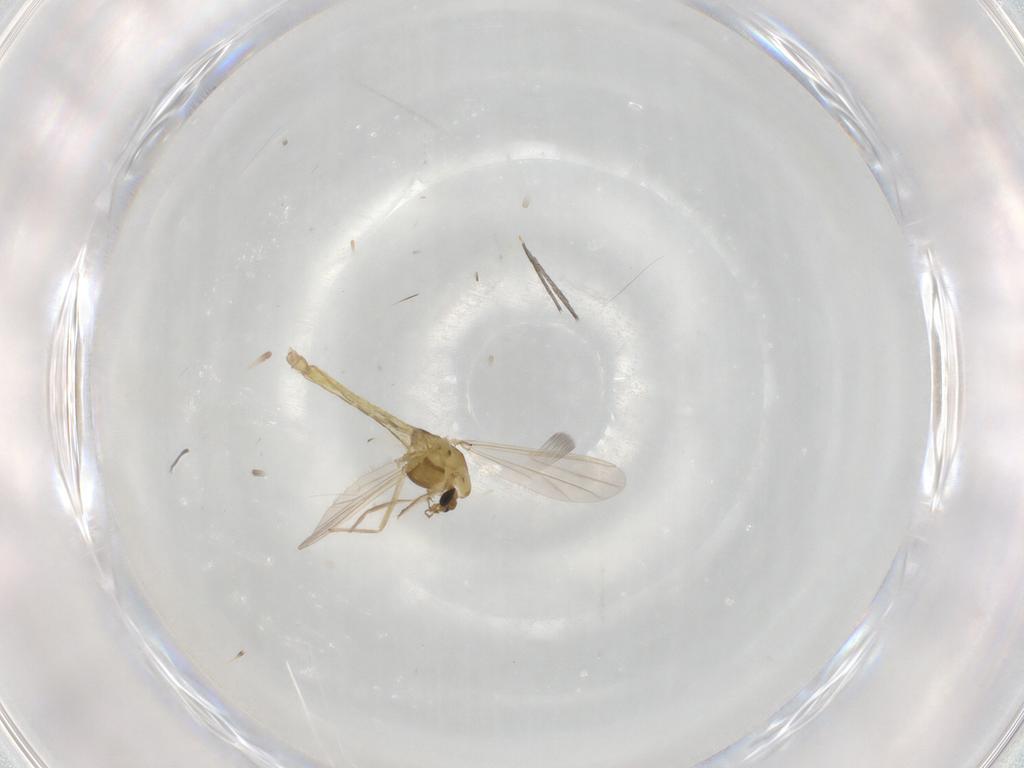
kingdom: Animalia
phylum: Arthropoda
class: Insecta
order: Diptera
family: Chironomidae
